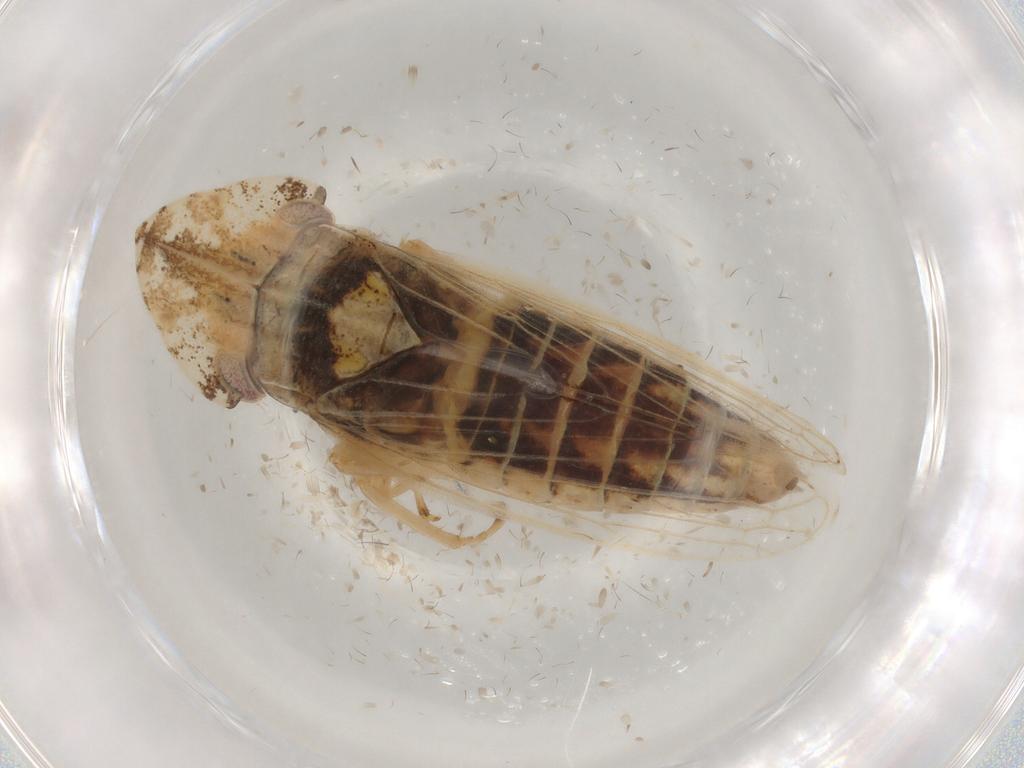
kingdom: Animalia
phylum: Arthropoda
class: Insecta
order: Hemiptera
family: Cicadellidae
